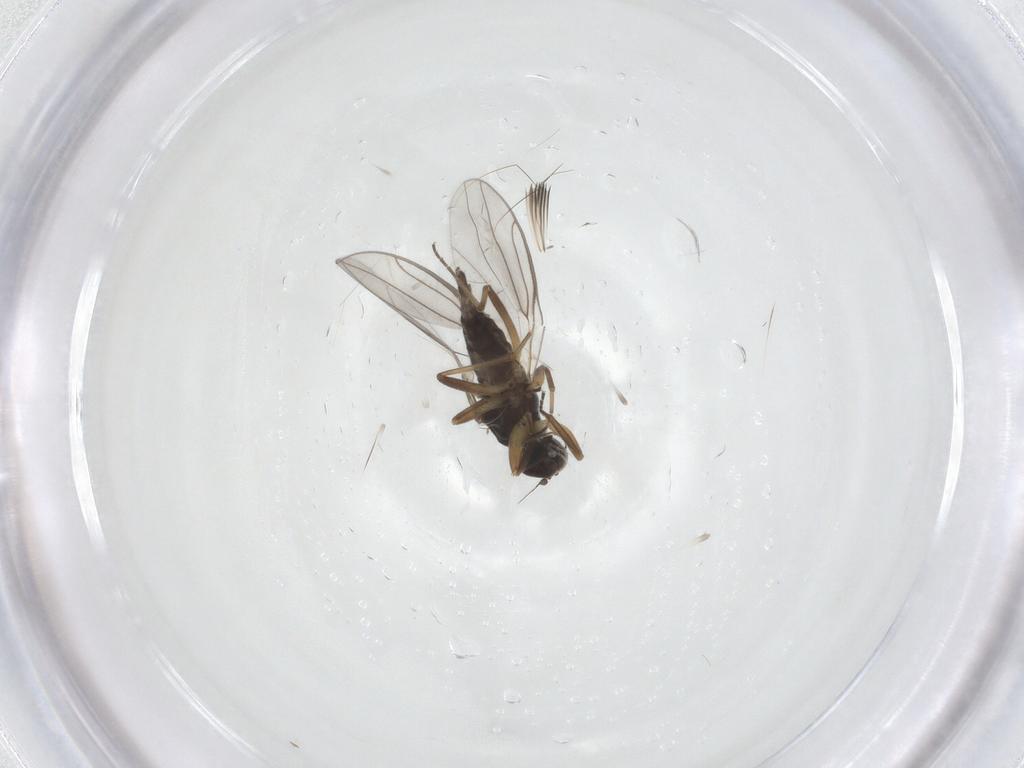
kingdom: Animalia
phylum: Arthropoda
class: Insecta
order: Diptera
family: Hybotidae
